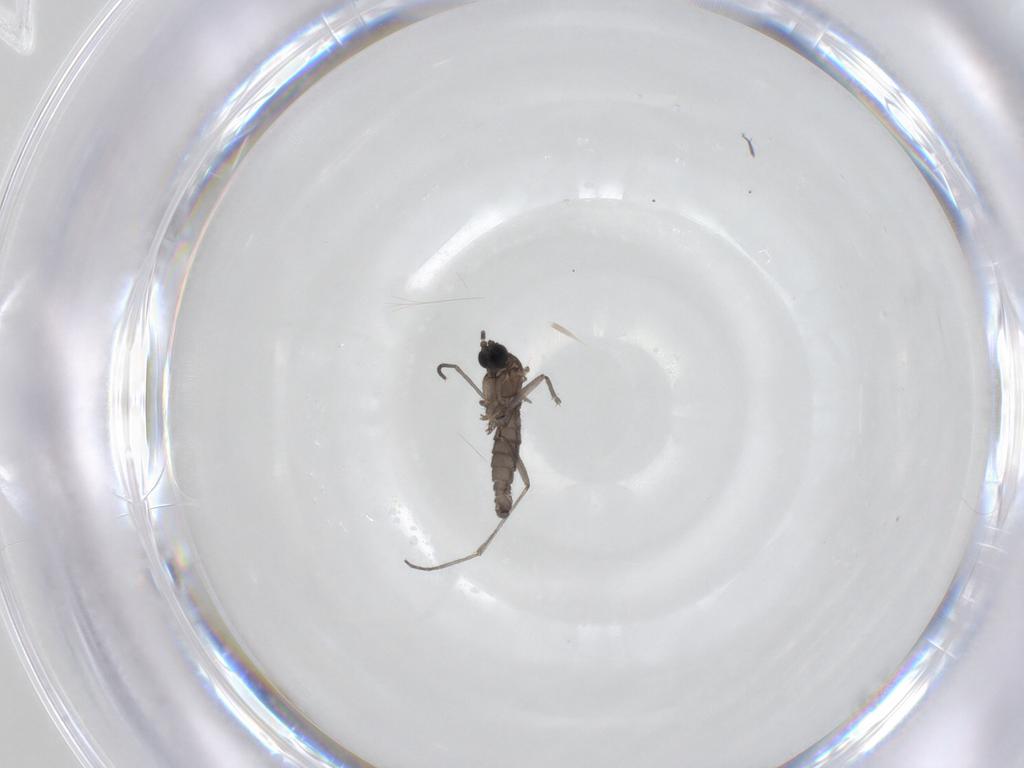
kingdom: Animalia
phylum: Arthropoda
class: Insecta
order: Diptera
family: Sciaridae
